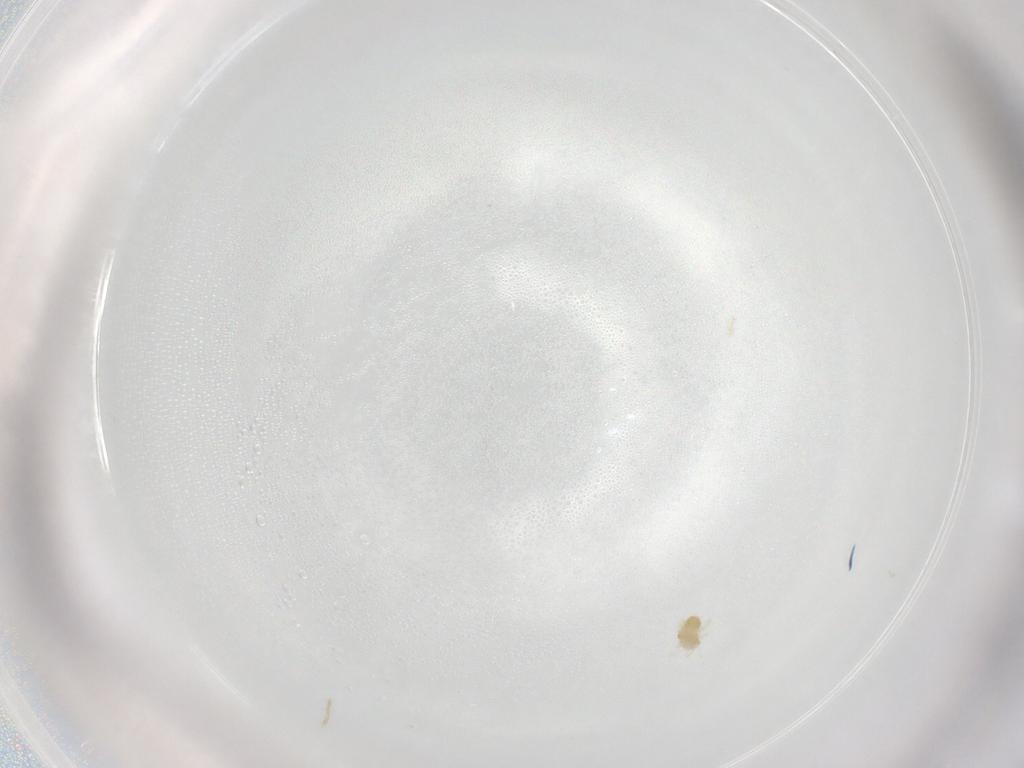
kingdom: Animalia
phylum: Arthropoda
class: Arachnida
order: Trombidiformes
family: Eupodidae
